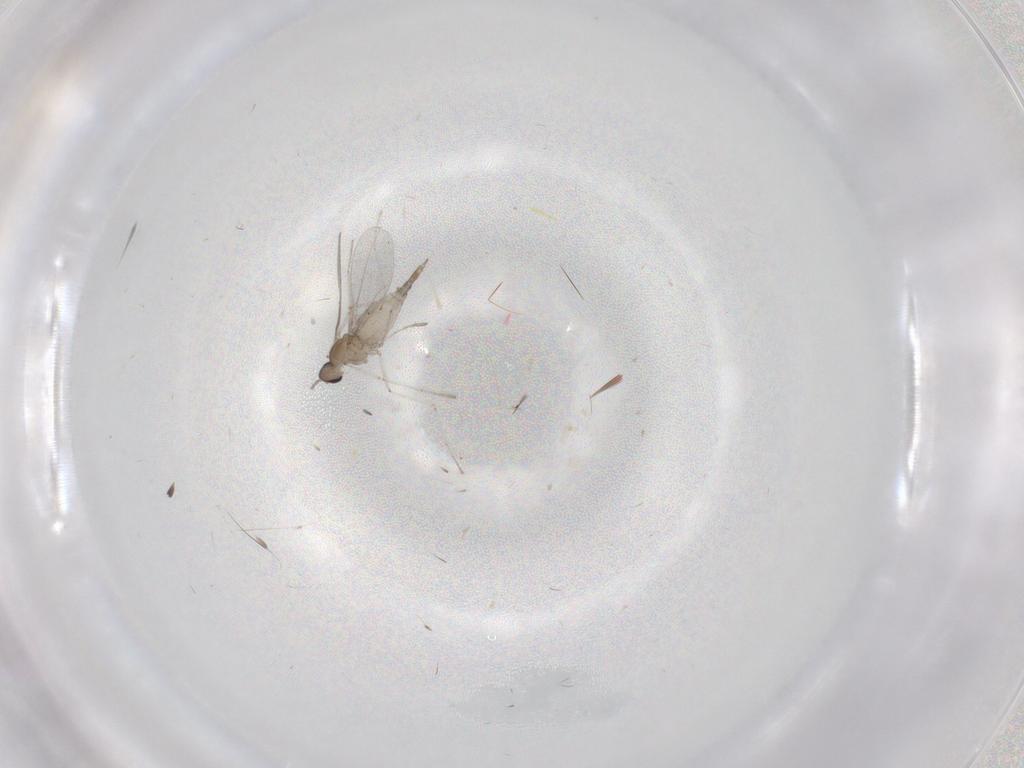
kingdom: Animalia
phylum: Arthropoda
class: Insecta
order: Diptera
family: Cecidomyiidae
